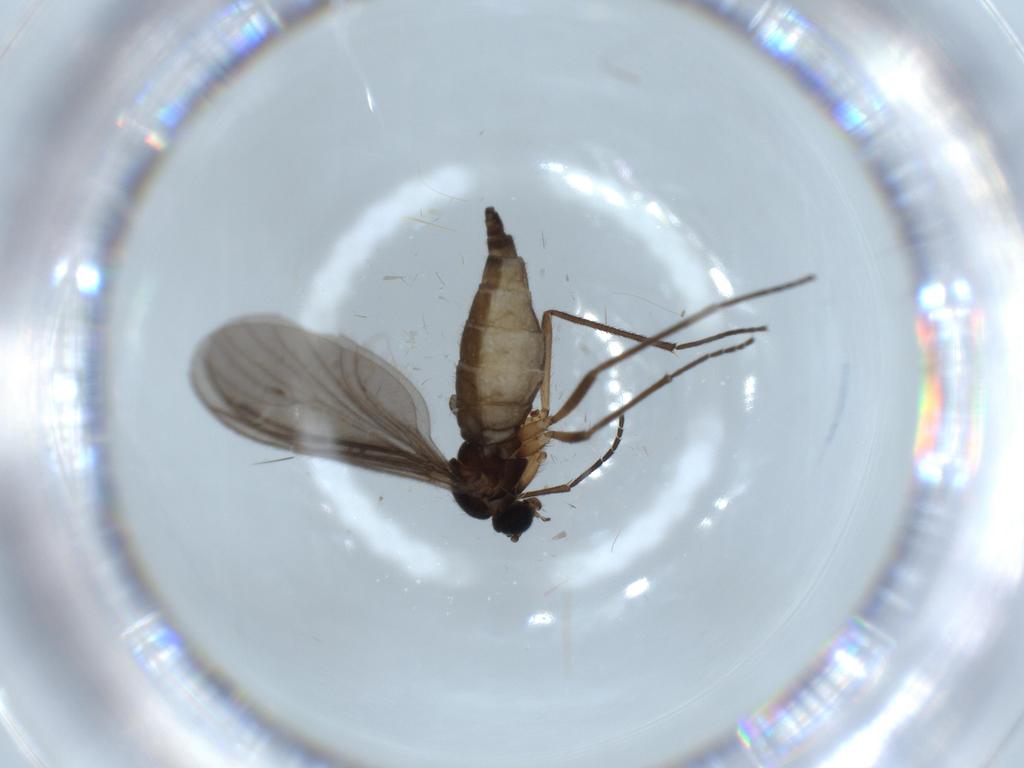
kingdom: Animalia
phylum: Arthropoda
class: Insecta
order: Diptera
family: Sciaridae
